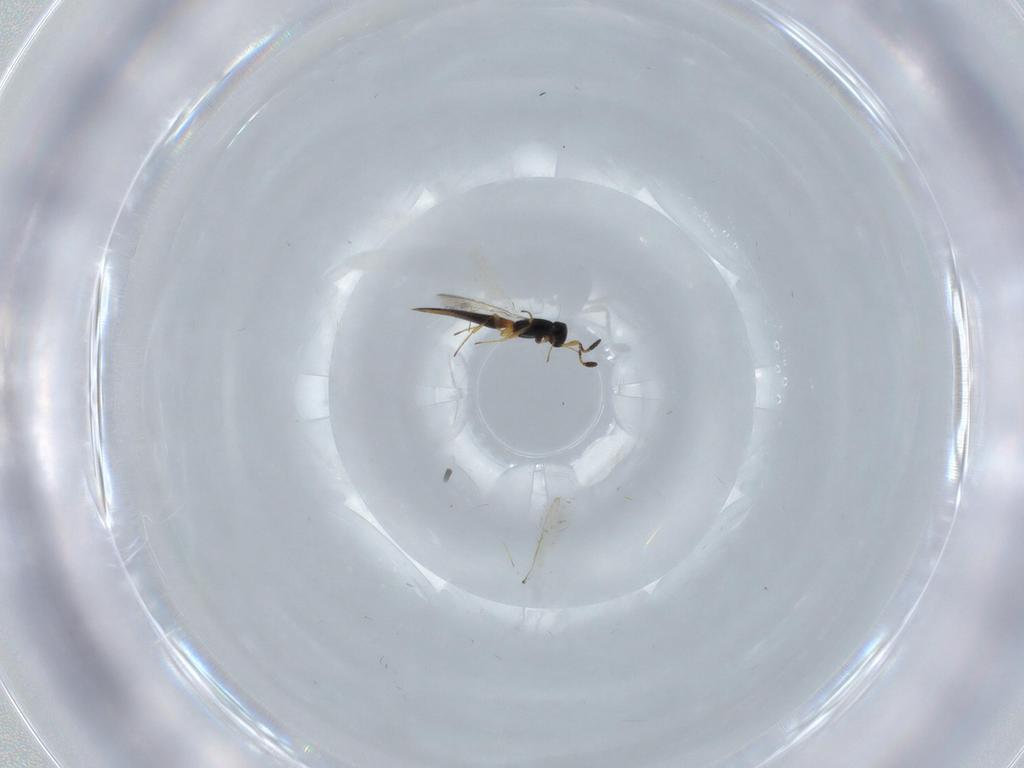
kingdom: Animalia
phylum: Arthropoda
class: Insecta
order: Hymenoptera
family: Scelionidae
